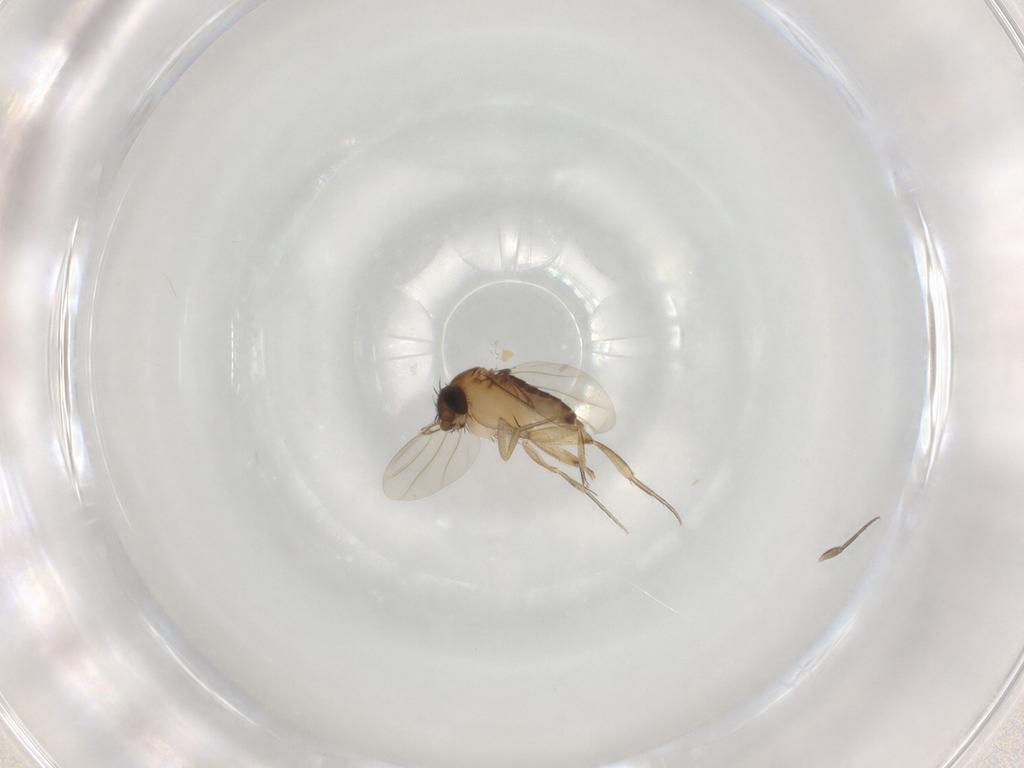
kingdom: Animalia
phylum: Arthropoda
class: Insecta
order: Diptera
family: Phoridae
